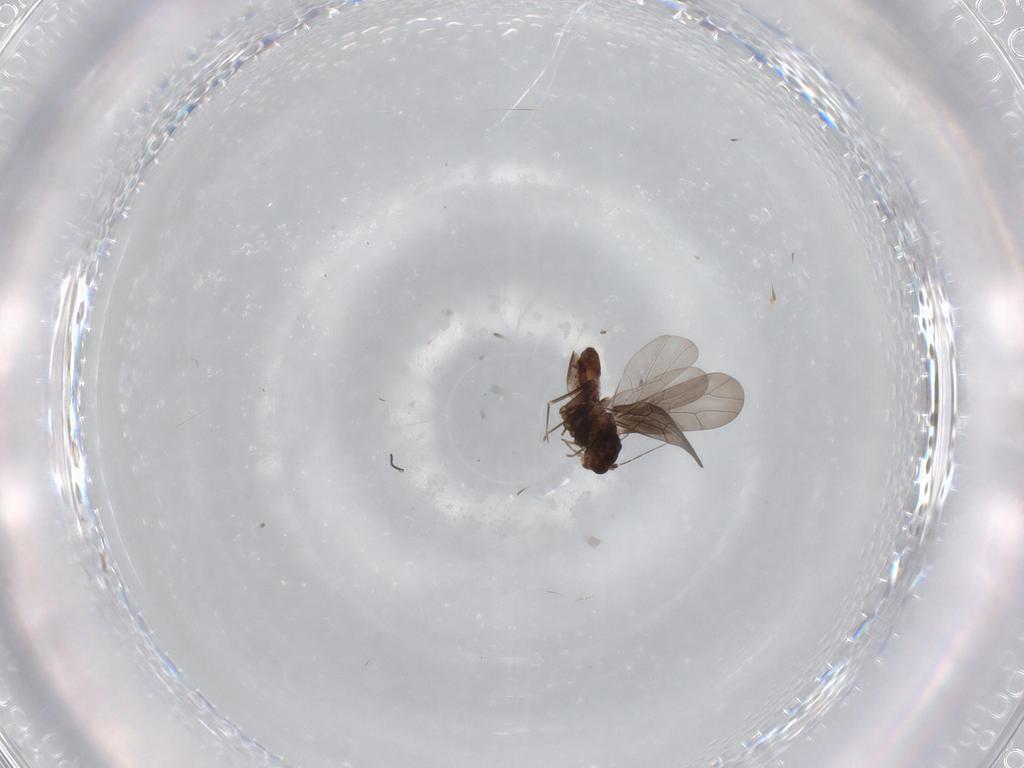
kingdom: Animalia
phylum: Arthropoda
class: Insecta
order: Psocodea
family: Lepidopsocidae
